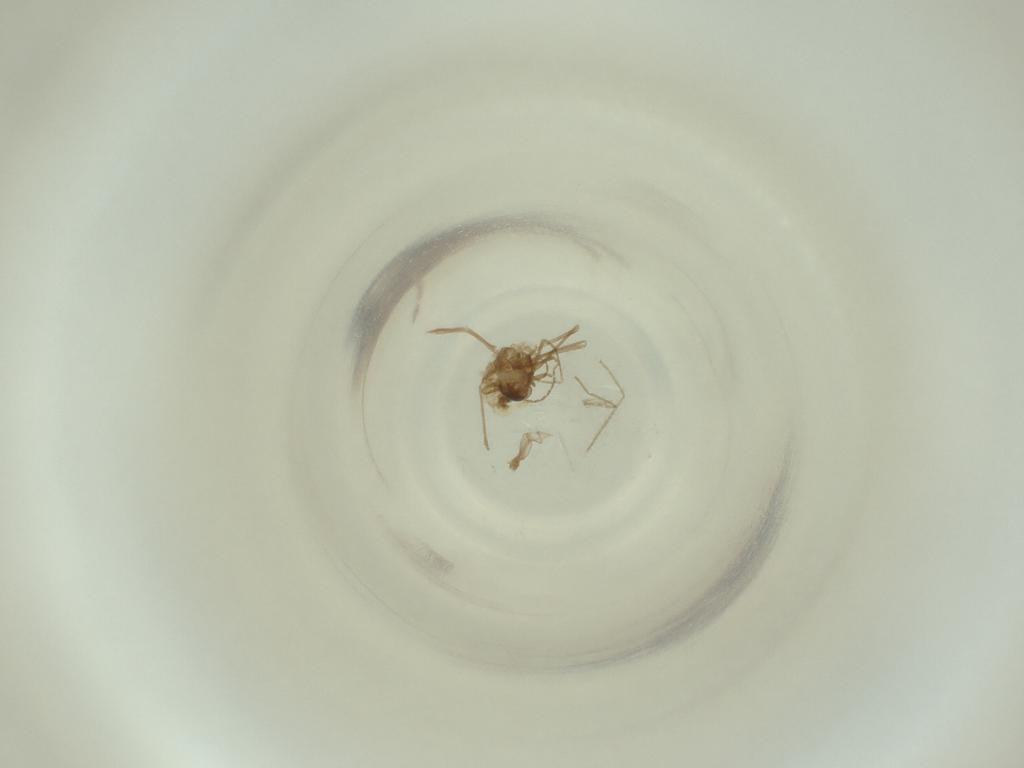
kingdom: Animalia
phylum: Arthropoda
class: Insecta
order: Diptera
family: Cecidomyiidae
